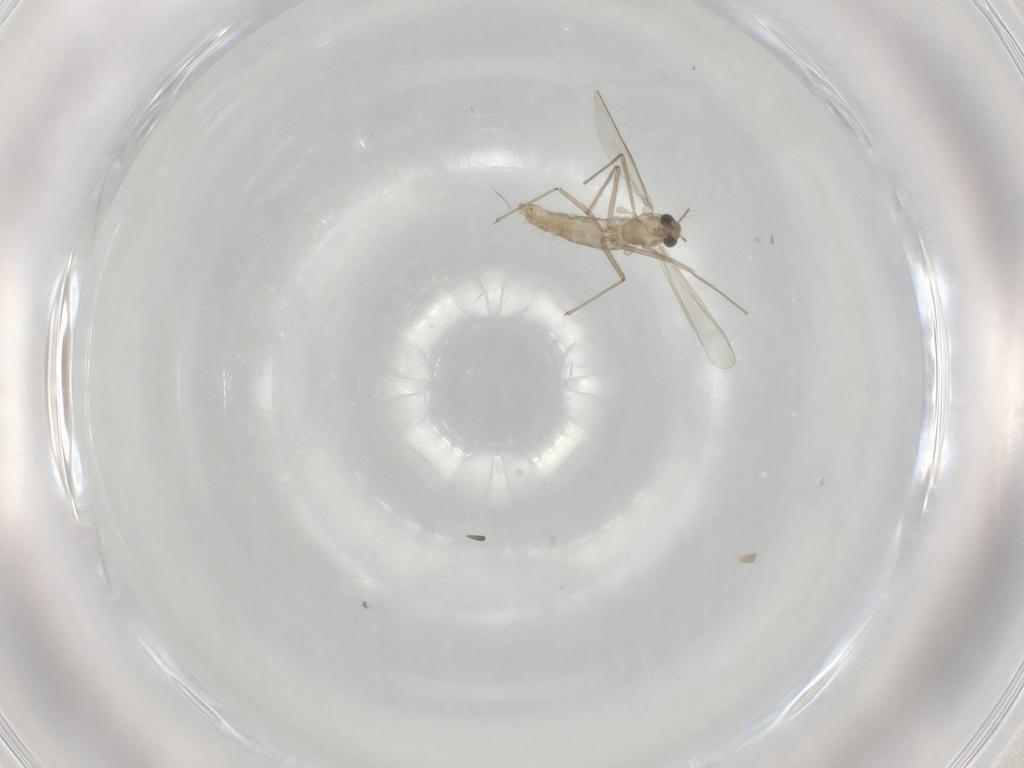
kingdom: Animalia
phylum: Arthropoda
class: Insecta
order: Diptera
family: Chironomidae
